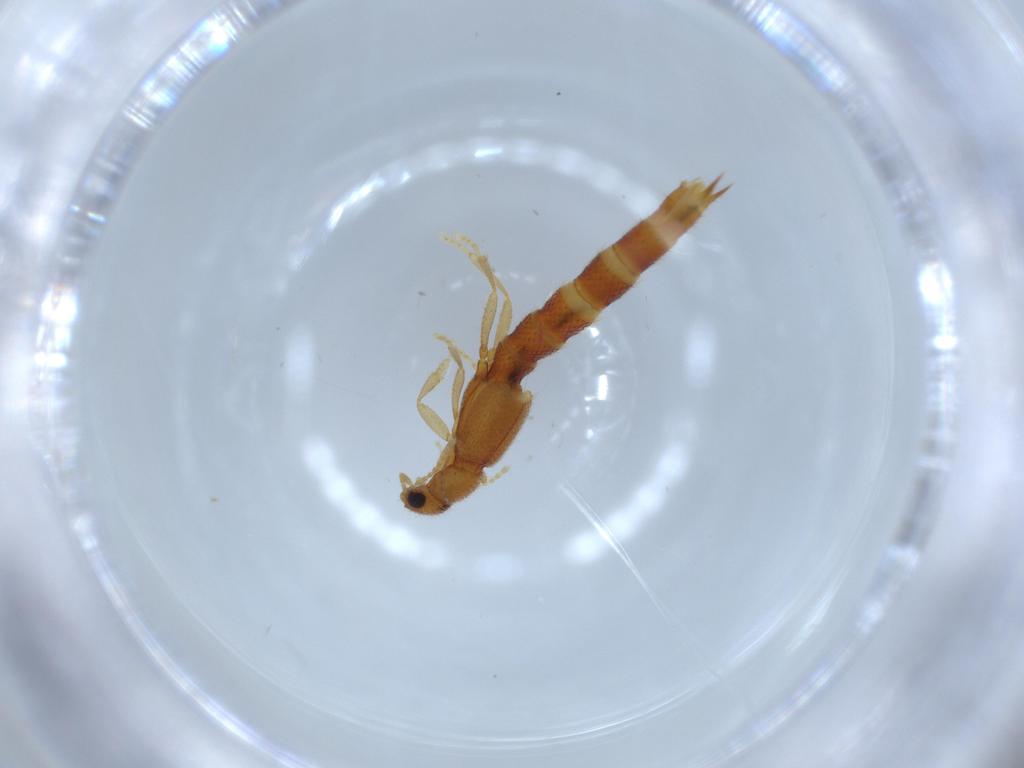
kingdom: Animalia
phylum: Arthropoda
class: Insecta
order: Coleoptera
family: Staphylinidae
